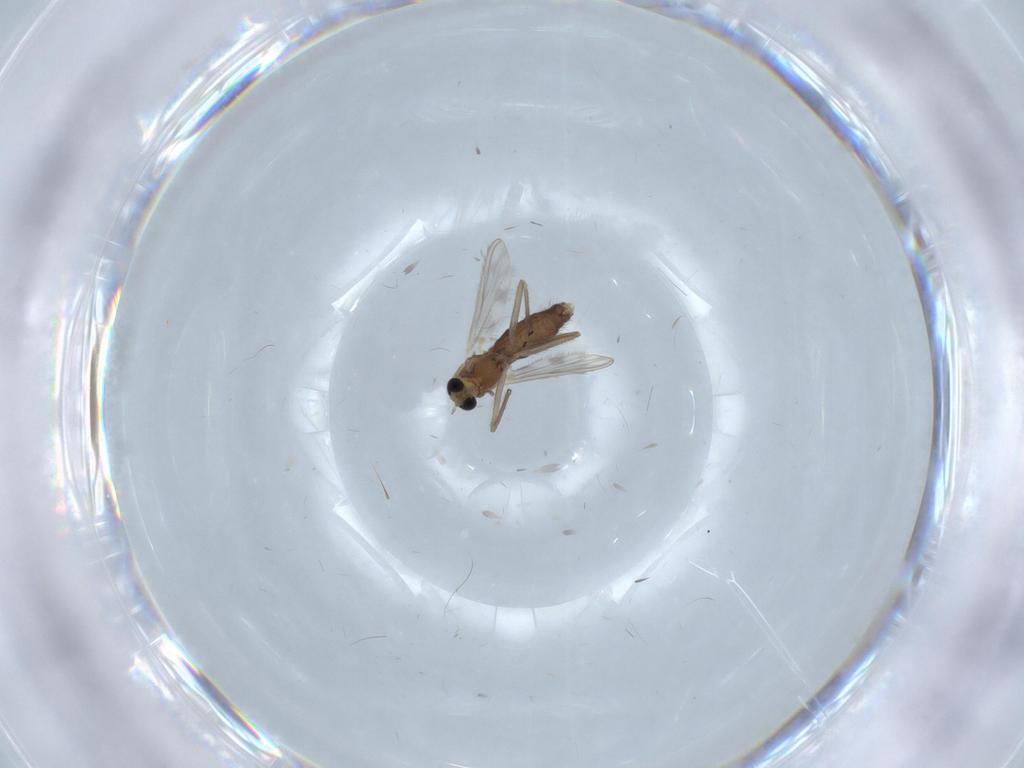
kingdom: Animalia
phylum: Arthropoda
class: Insecta
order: Diptera
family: Chironomidae
